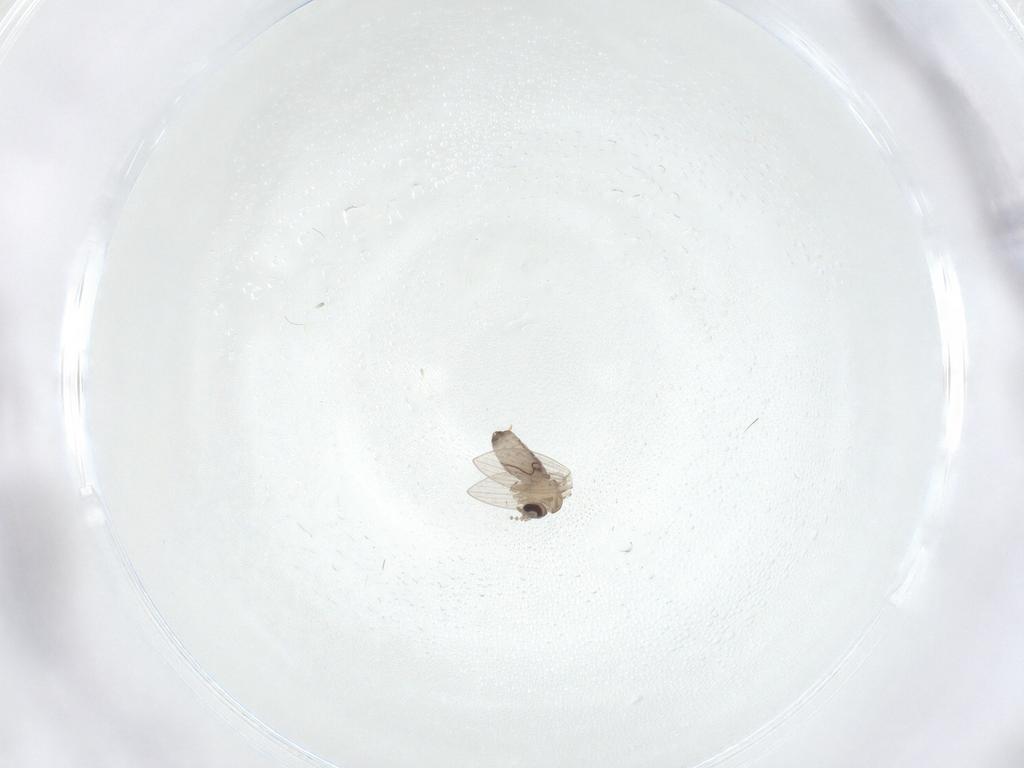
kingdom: Animalia
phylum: Arthropoda
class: Insecta
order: Diptera
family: Psychodidae
